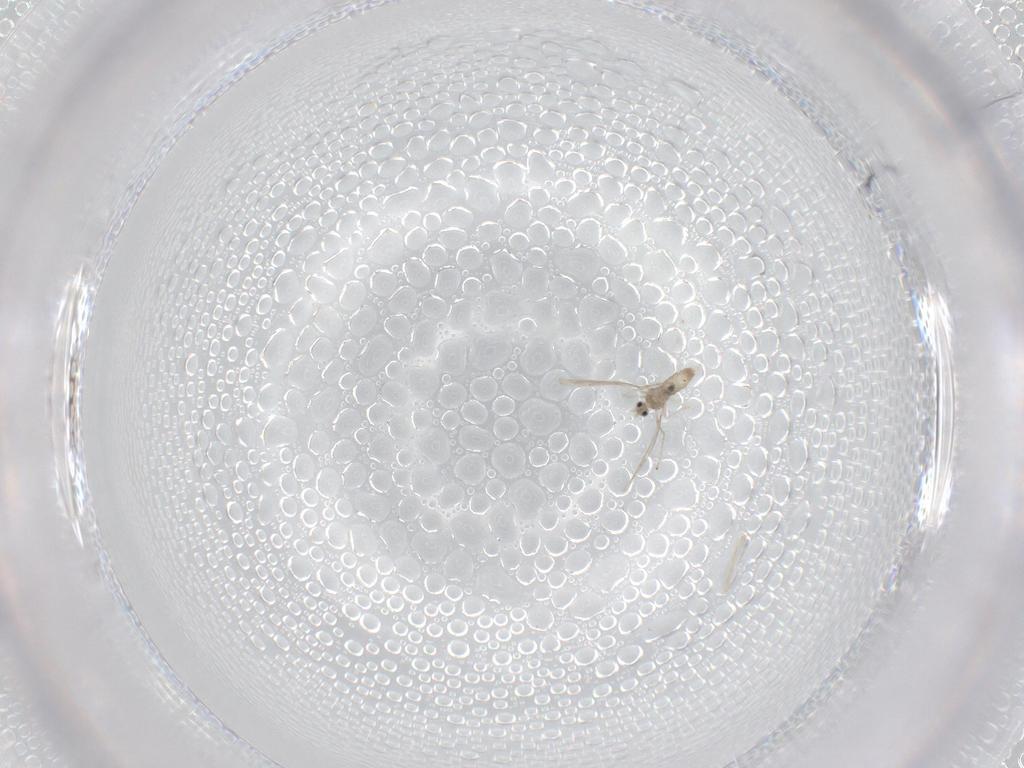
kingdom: Animalia
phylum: Arthropoda
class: Insecta
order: Diptera
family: Cecidomyiidae
